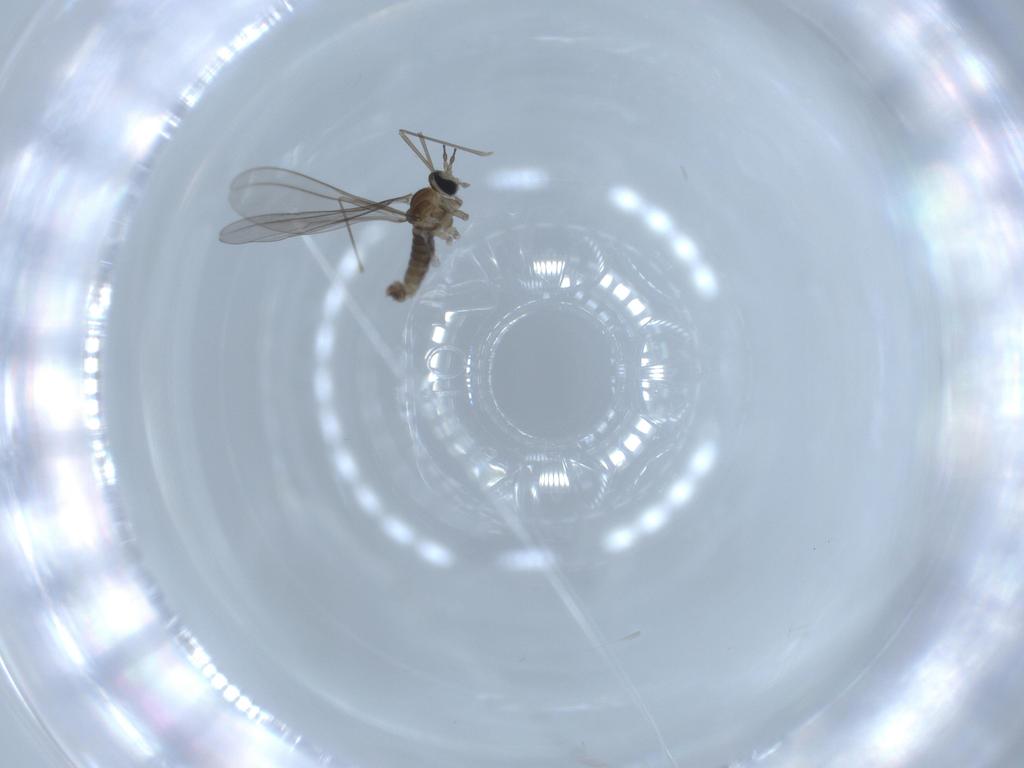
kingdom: Animalia
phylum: Arthropoda
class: Insecta
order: Diptera
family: Cecidomyiidae
